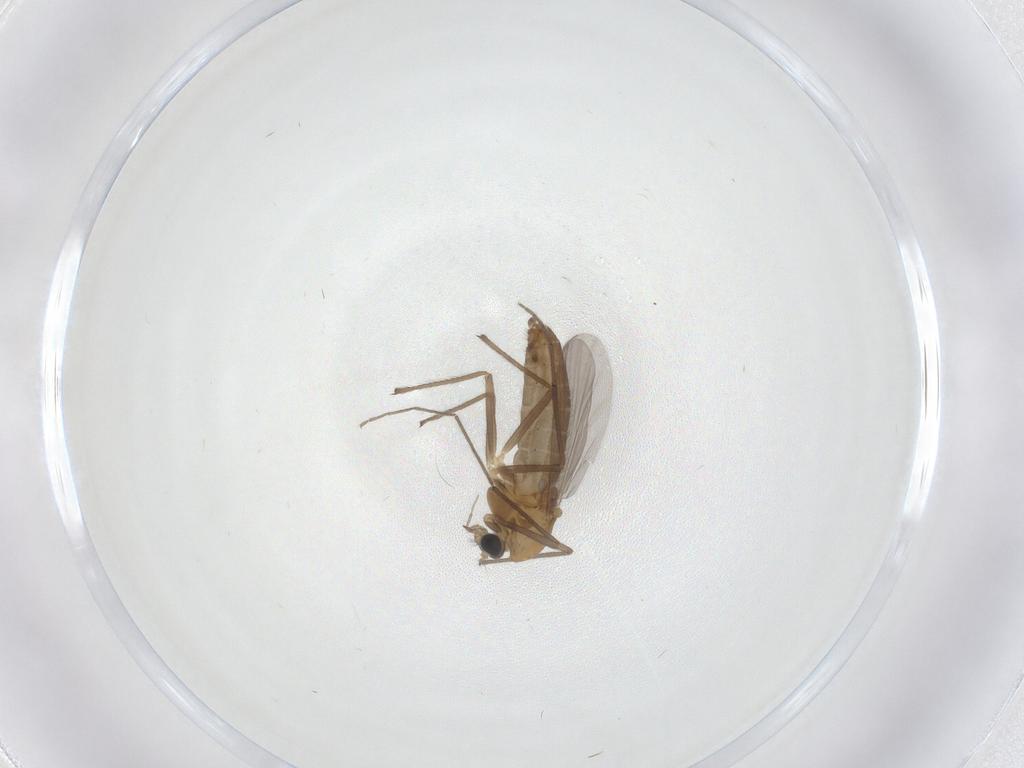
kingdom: Animalia
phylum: Arthropoda
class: Insecta
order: Diptera
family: Chironomidae
